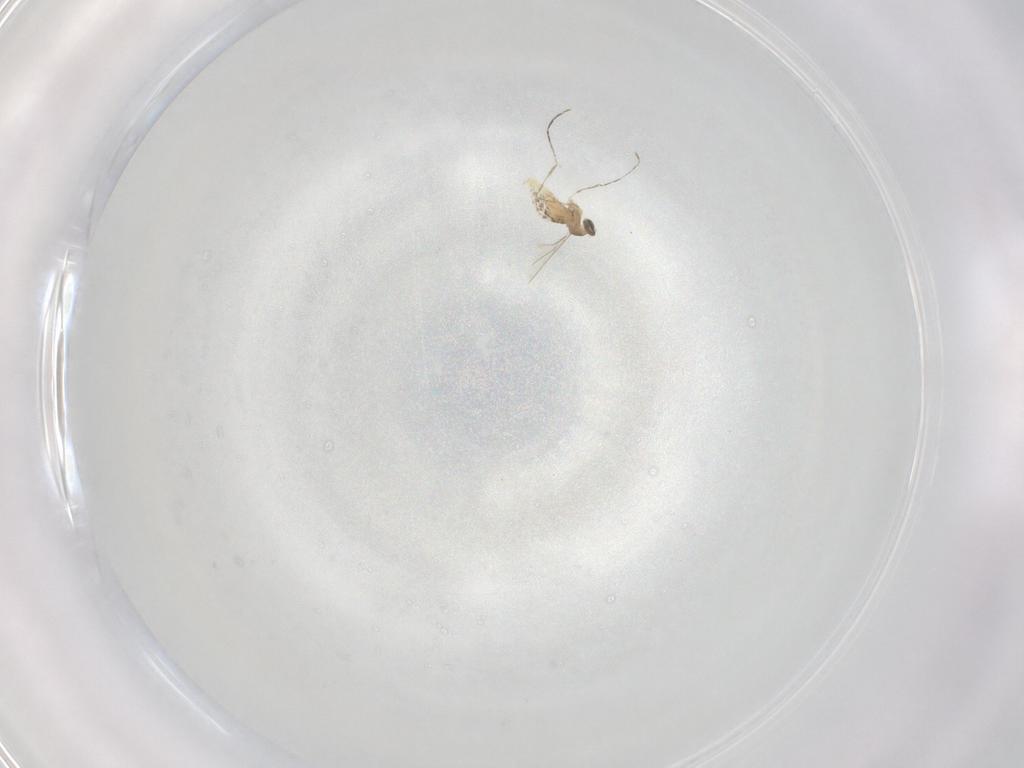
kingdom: Animalia
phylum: Arthropoda
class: Insecta
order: Diptera
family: Cecidomyiidae
